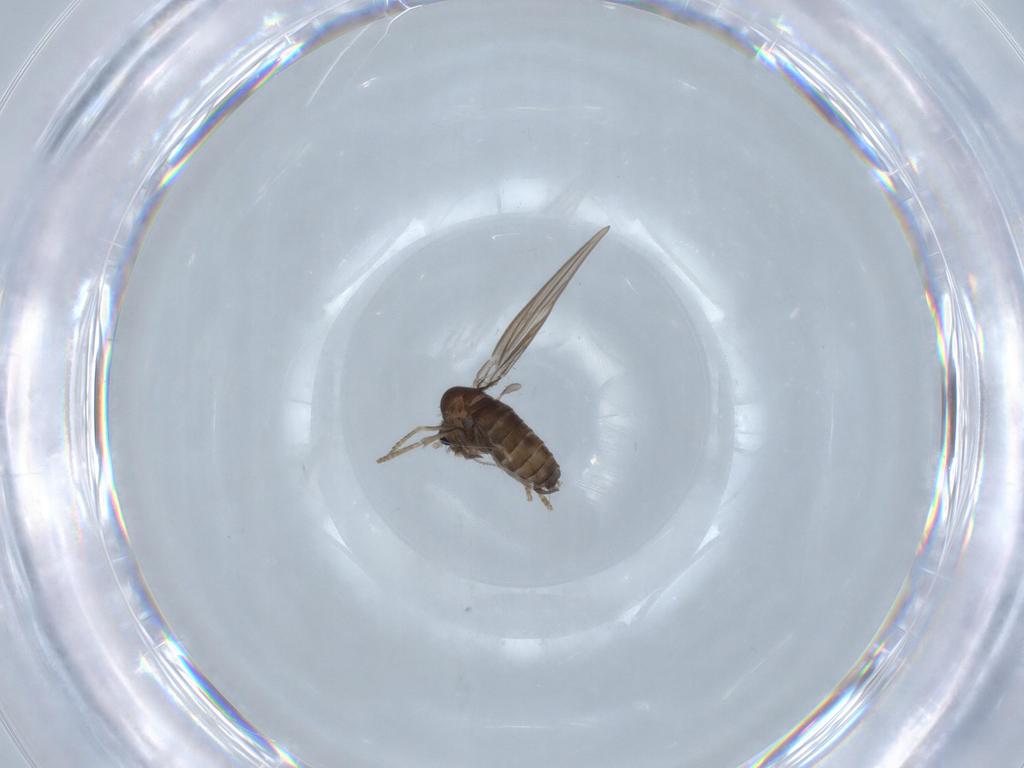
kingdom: Animalia
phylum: Arthropoda
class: Insecta
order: Diptera
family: Psychodidae
